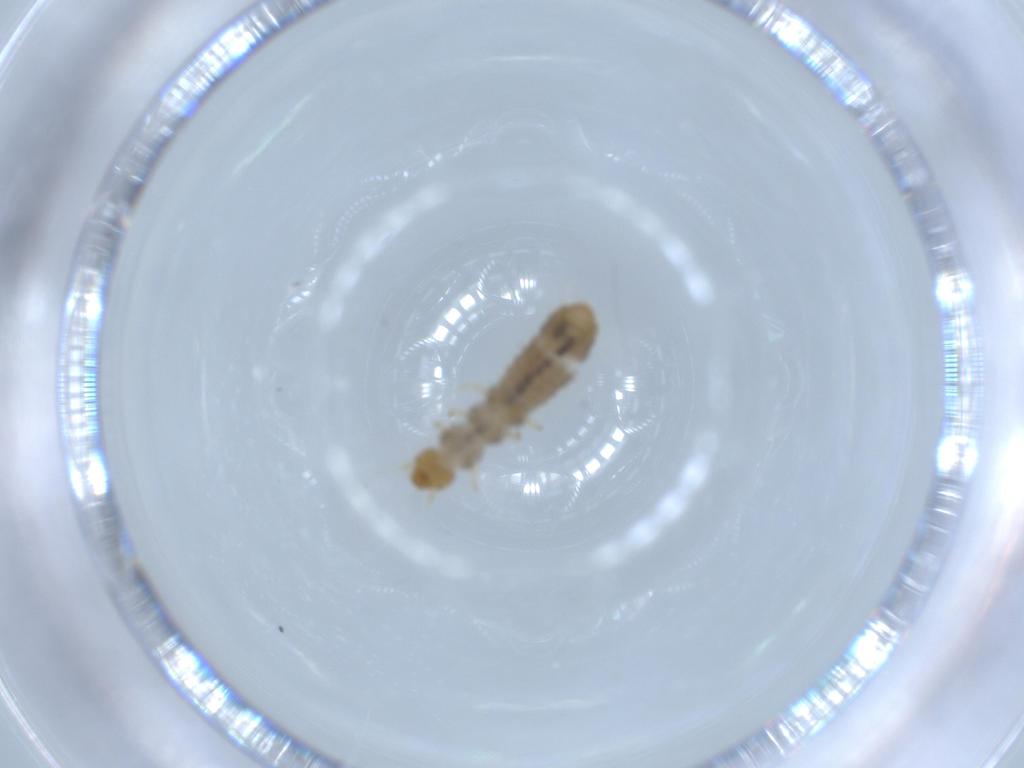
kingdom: Animalia
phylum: Arthropoda
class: Insecta
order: Coleoptera
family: Mycetophagidae
